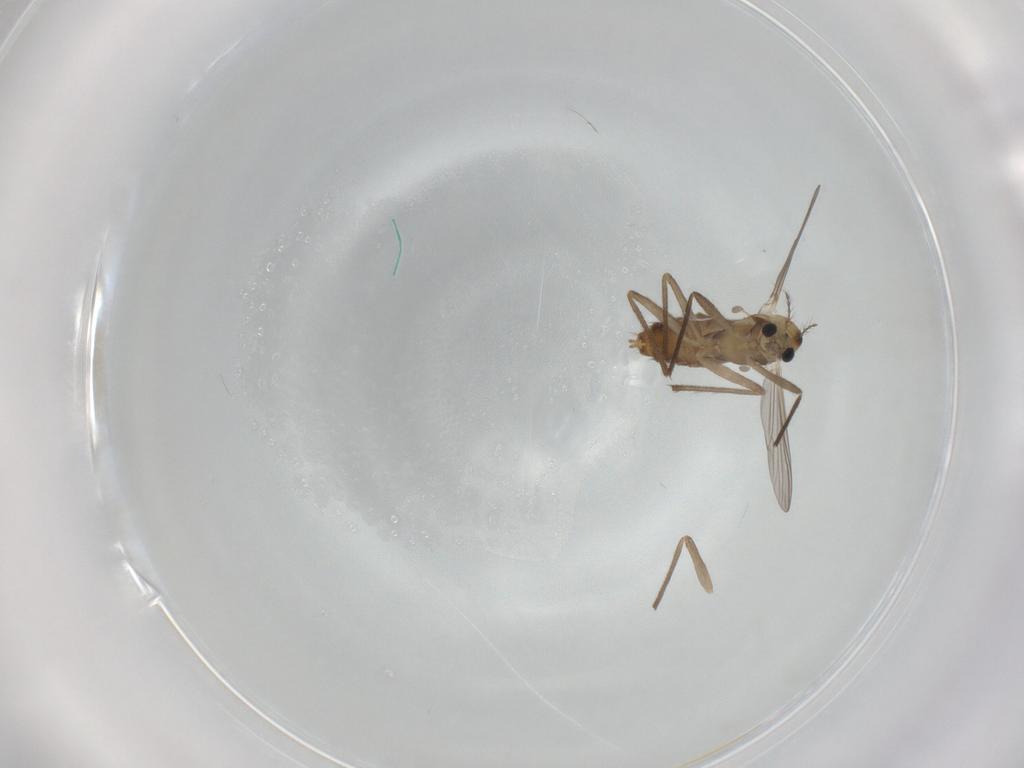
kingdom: Animalia
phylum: Arthropoda
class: Insecta
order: Diptera
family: Chironomidae
